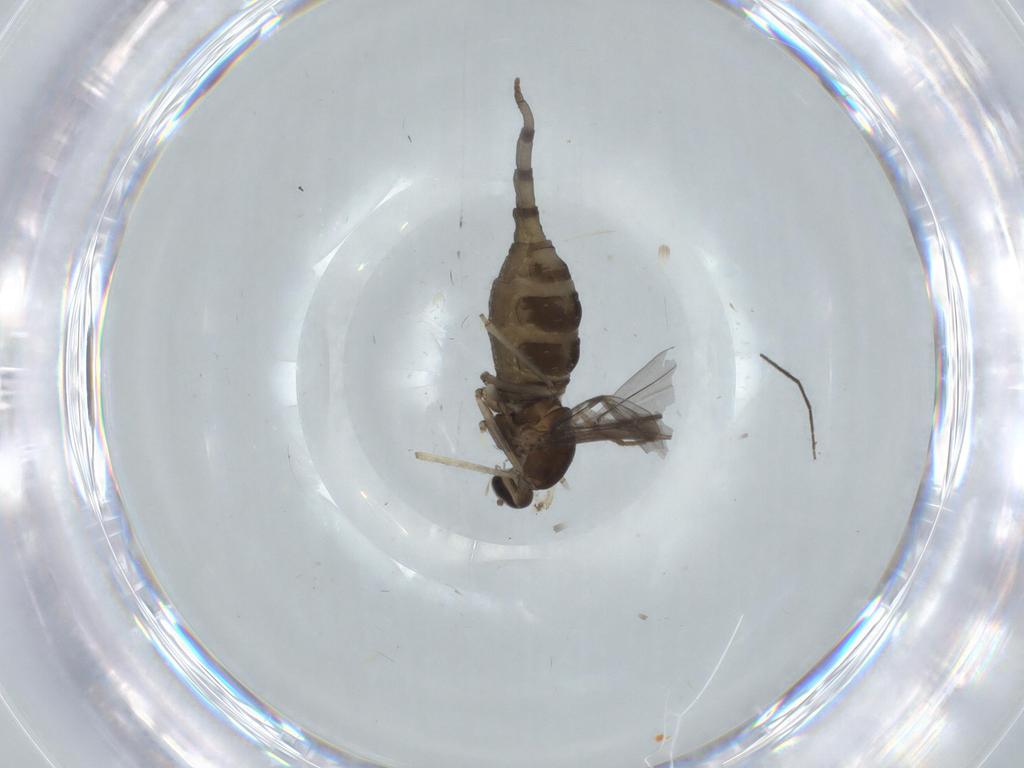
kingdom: Animalia
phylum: Arthropoda
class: Insecta
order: Diptera
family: Cecidomyiidae
